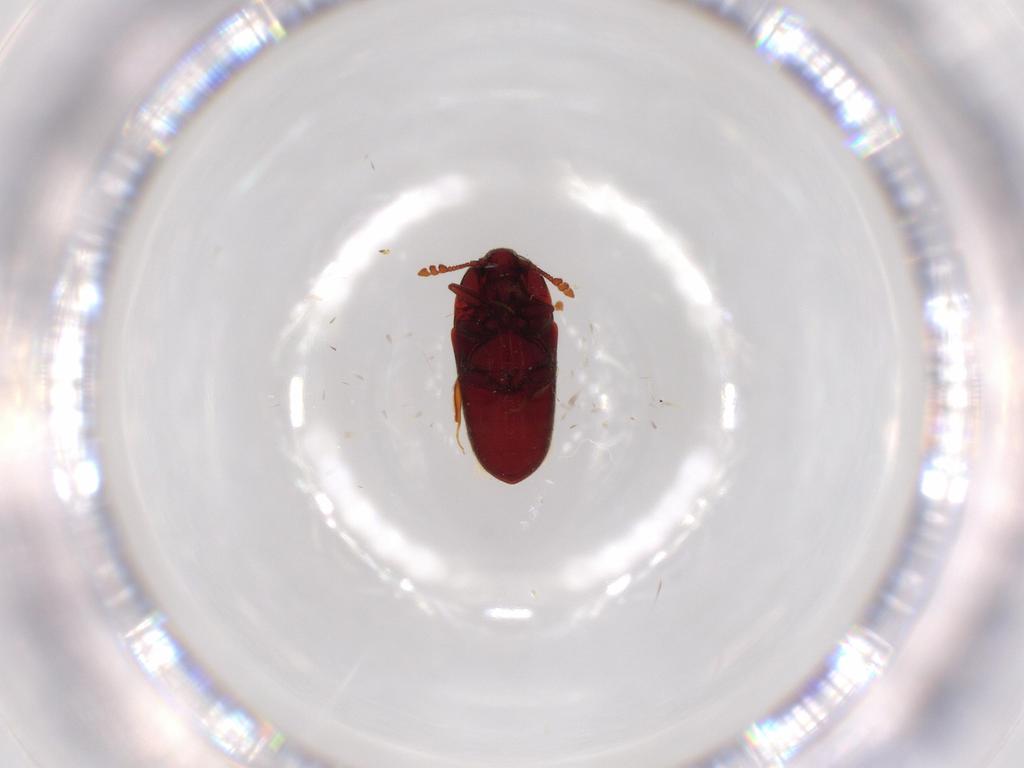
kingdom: Animalia
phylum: Arthropoda
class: Insecta
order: Coleoptera
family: Throscidae
